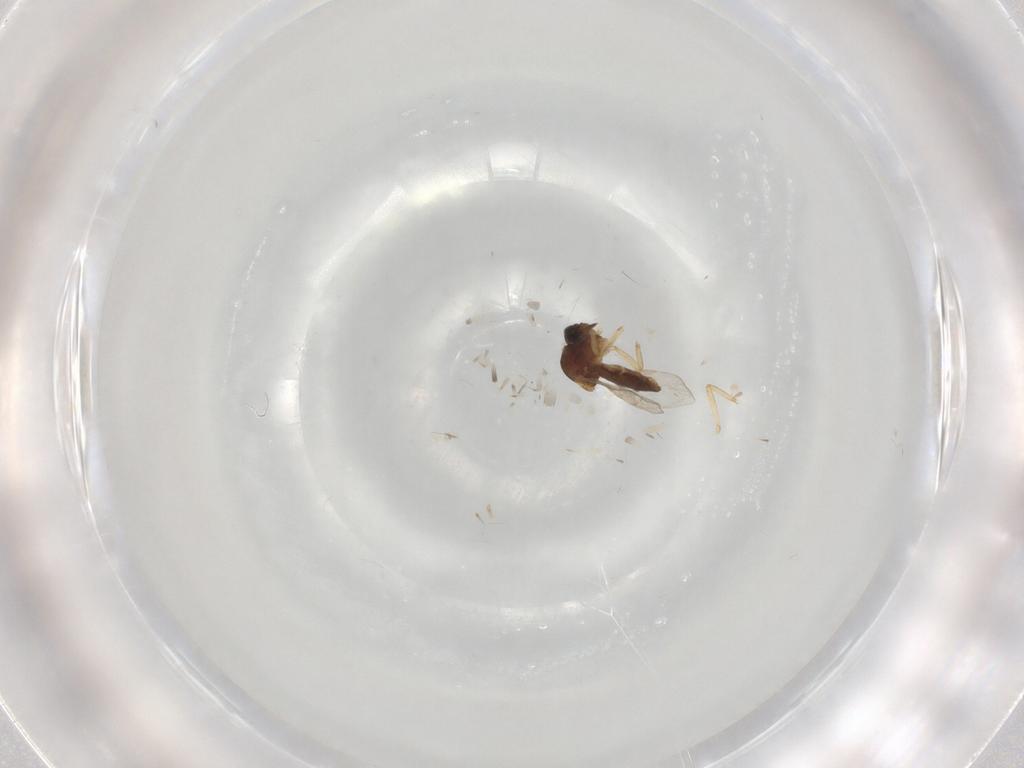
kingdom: Animalia
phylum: Arthropoda
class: Insecta
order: Diptera
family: Ceratopogonidae
